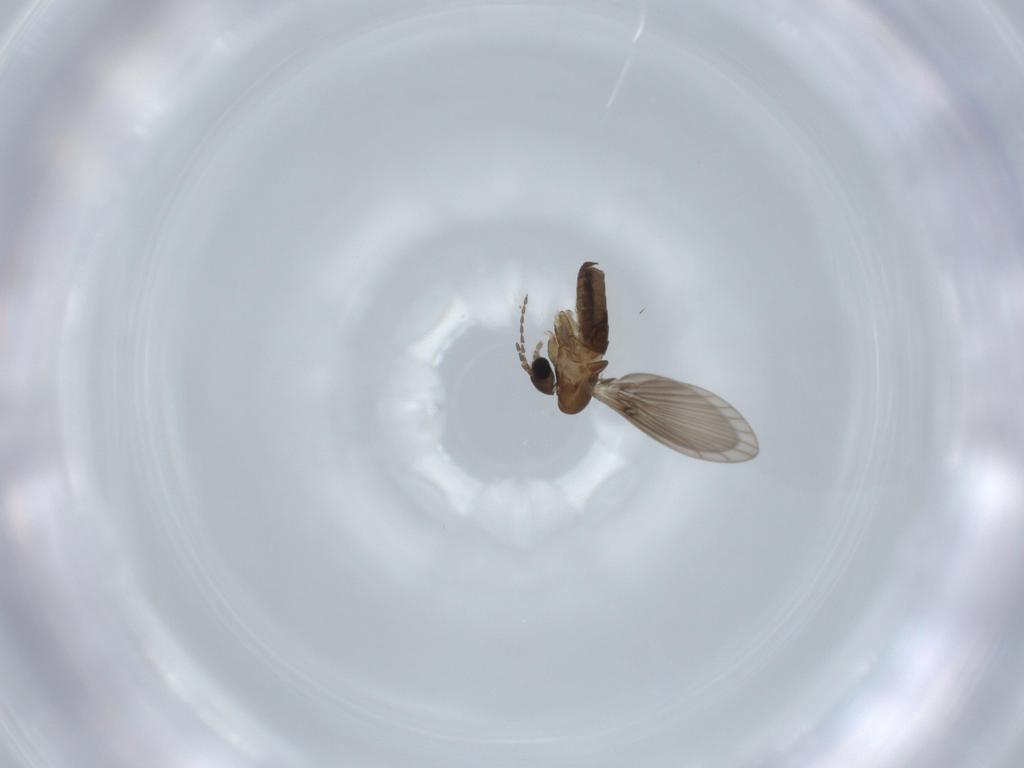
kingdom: Animalia
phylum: Arthropoda
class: Insecta
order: Diptera
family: Psychodidae
